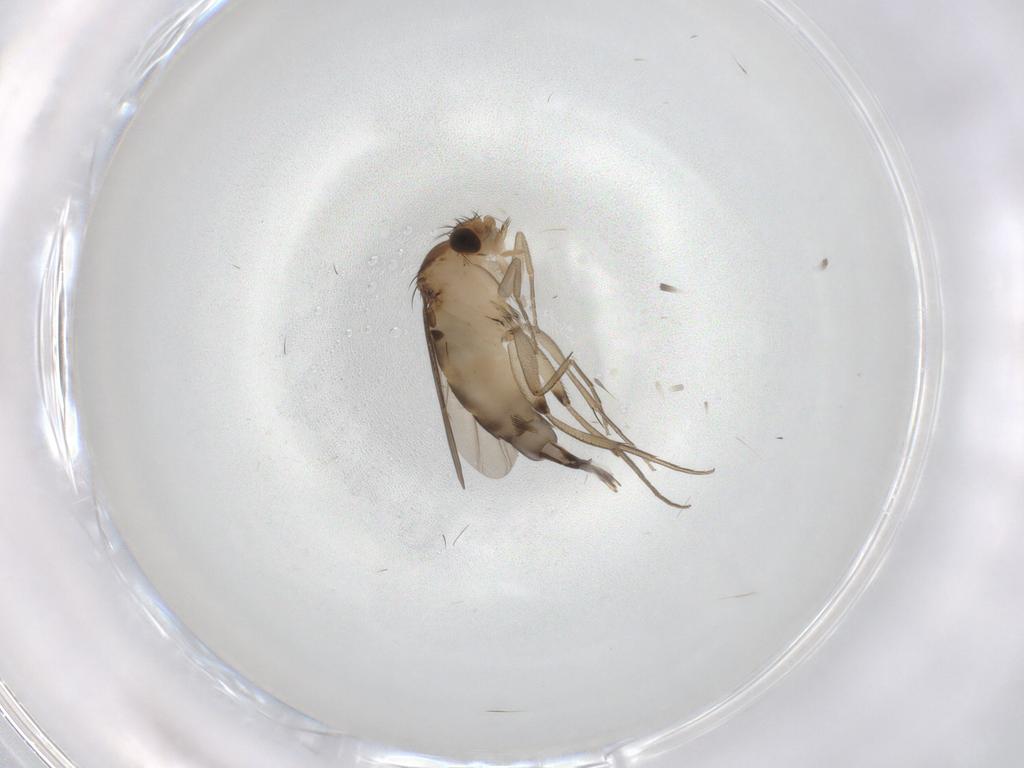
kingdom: Animalia
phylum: Arthropoda
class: Insecta
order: Diptera
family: Phoridae
